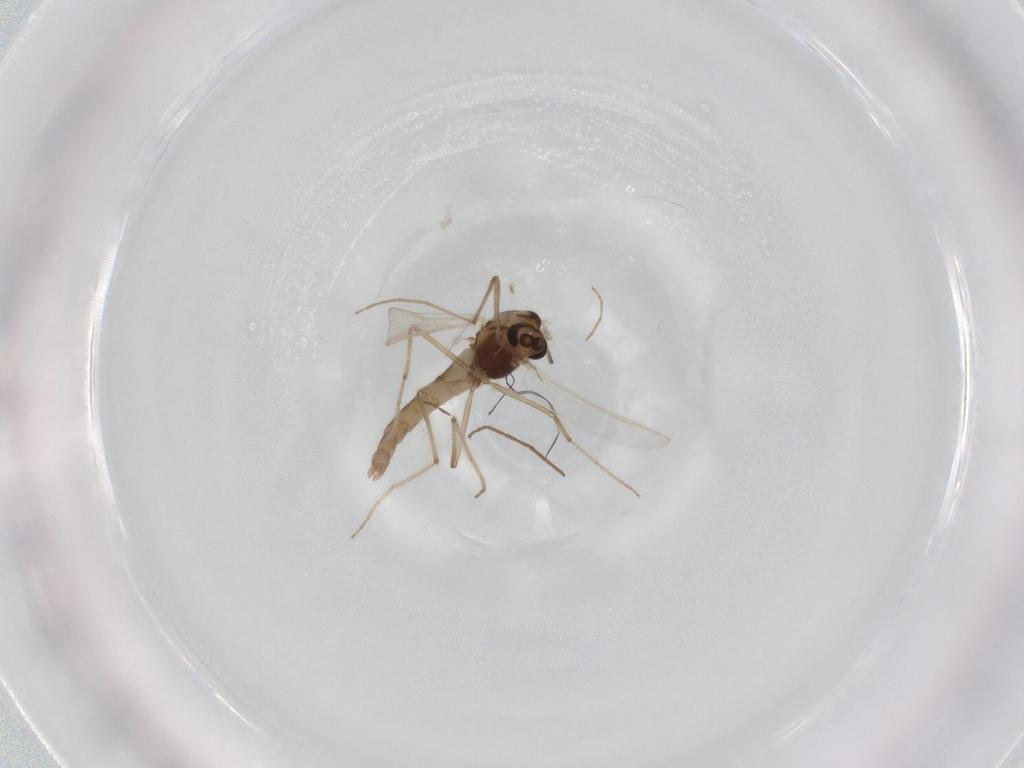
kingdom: Animalia
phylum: Arthropoda
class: Insecta
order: Diptera
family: Chironomidae
